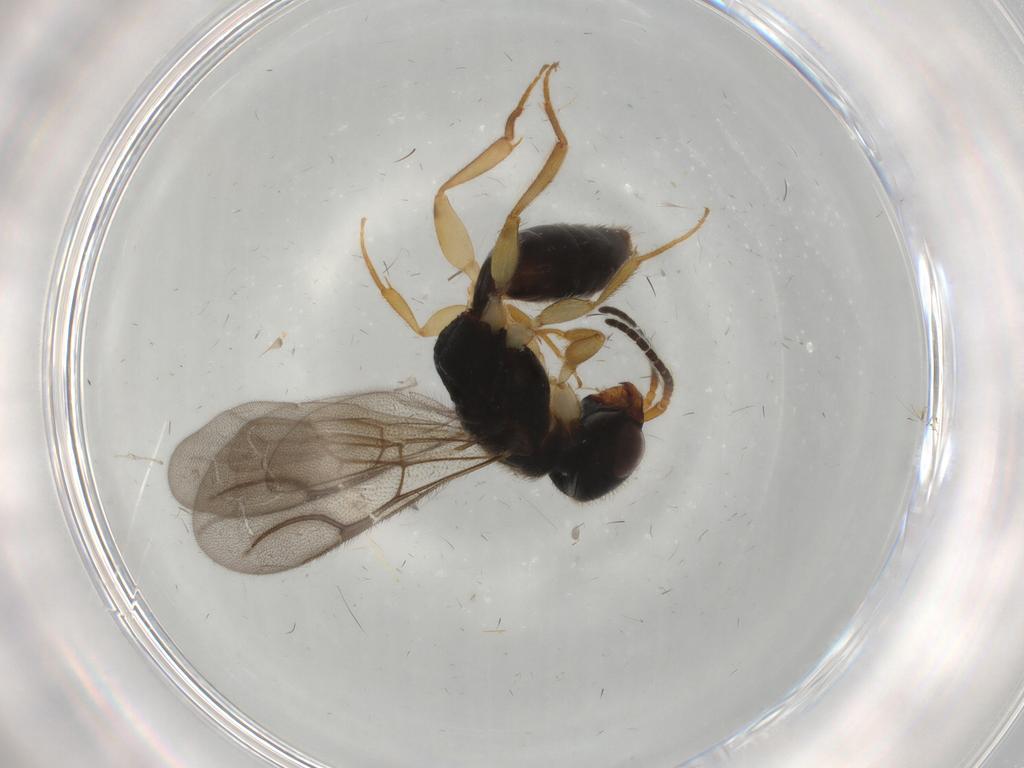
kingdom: Animalia
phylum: Arthropoda
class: Insecta
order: Hymenoptera
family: Bethylidae
